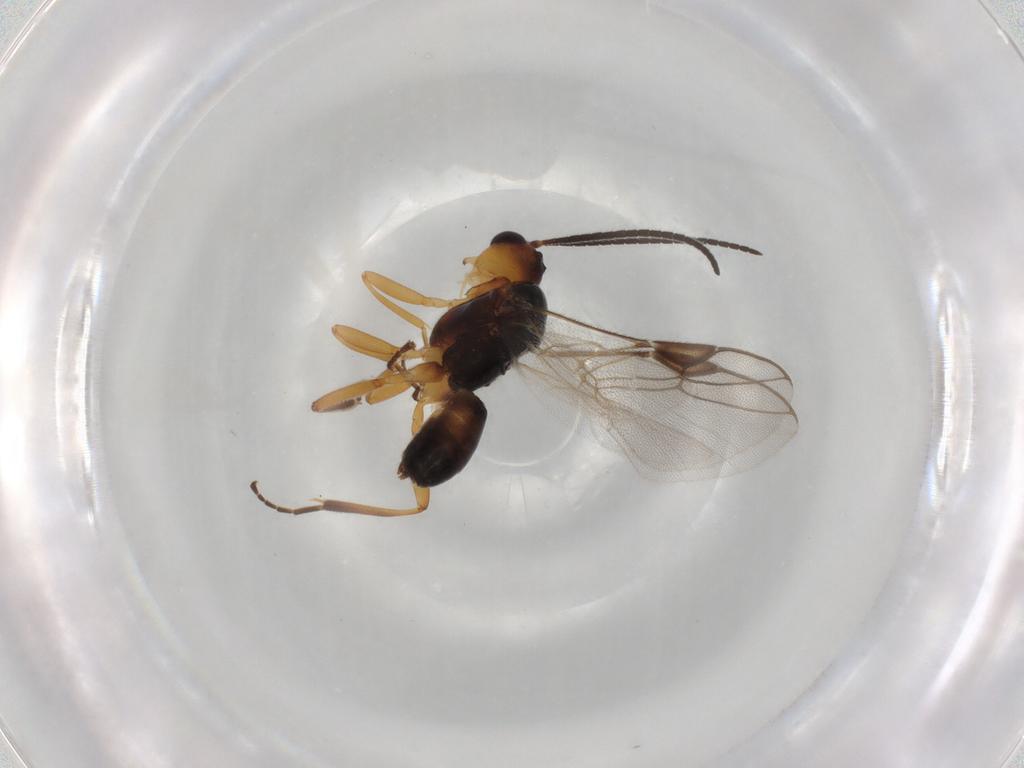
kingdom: Animalia
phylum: Arthropoda
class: Insecta
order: Hymenoptera
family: Braconidae
